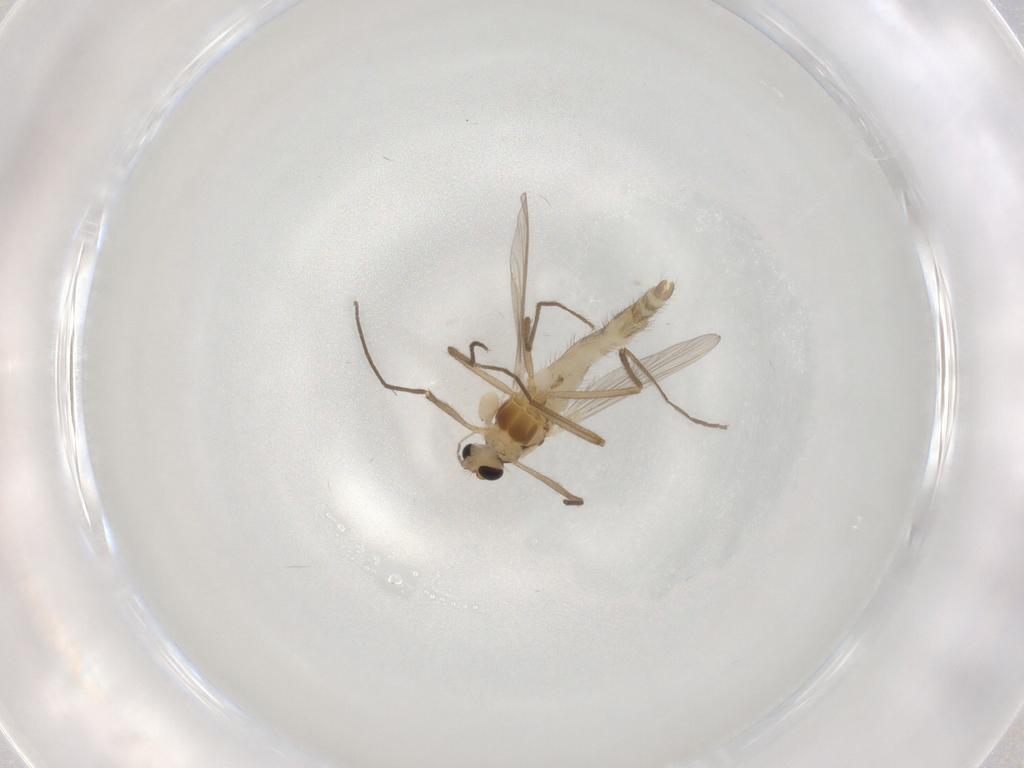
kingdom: Animalia
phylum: Arthropoda
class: Insecta
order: Diptera
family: Chironomidae
